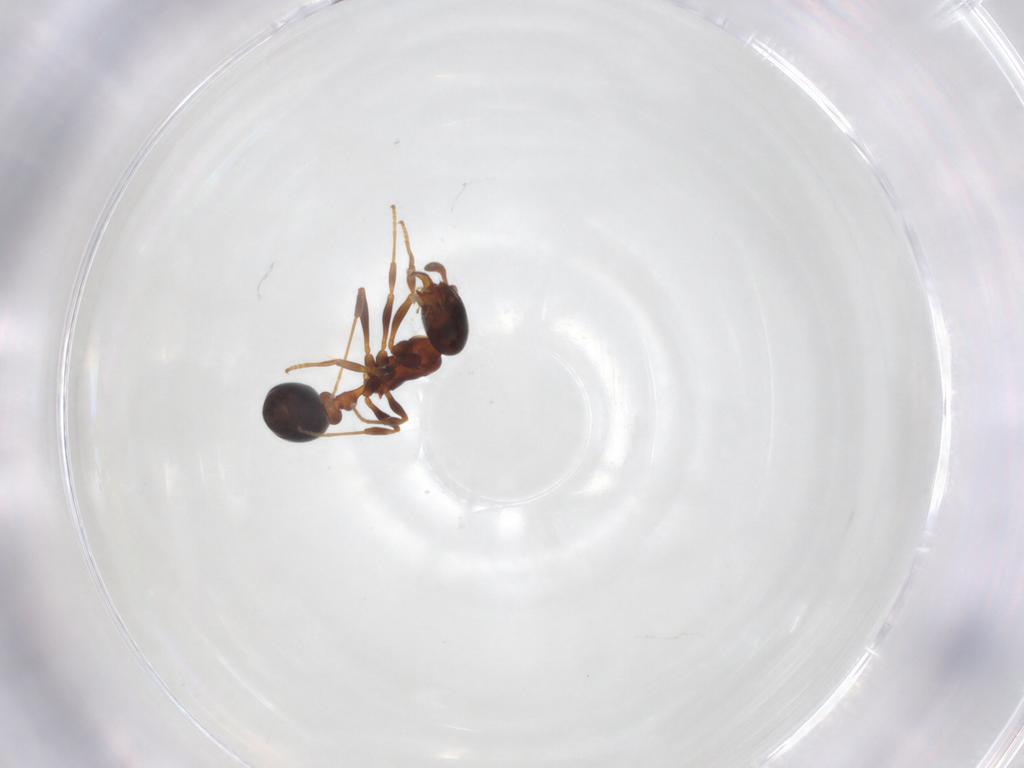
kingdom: Animalia
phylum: Arthropoda
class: Insecta
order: Hymenoptera
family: Formicidae
